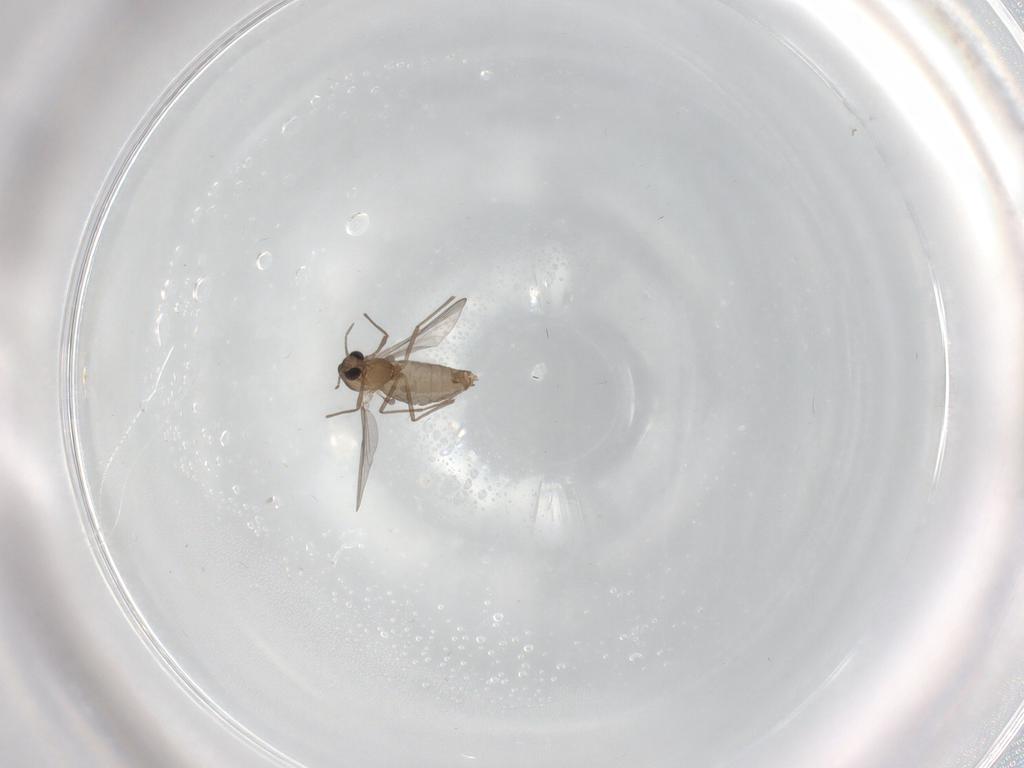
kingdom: Animalia
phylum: Arthropoda
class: Insecta
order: Diptera
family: Chironomidae
